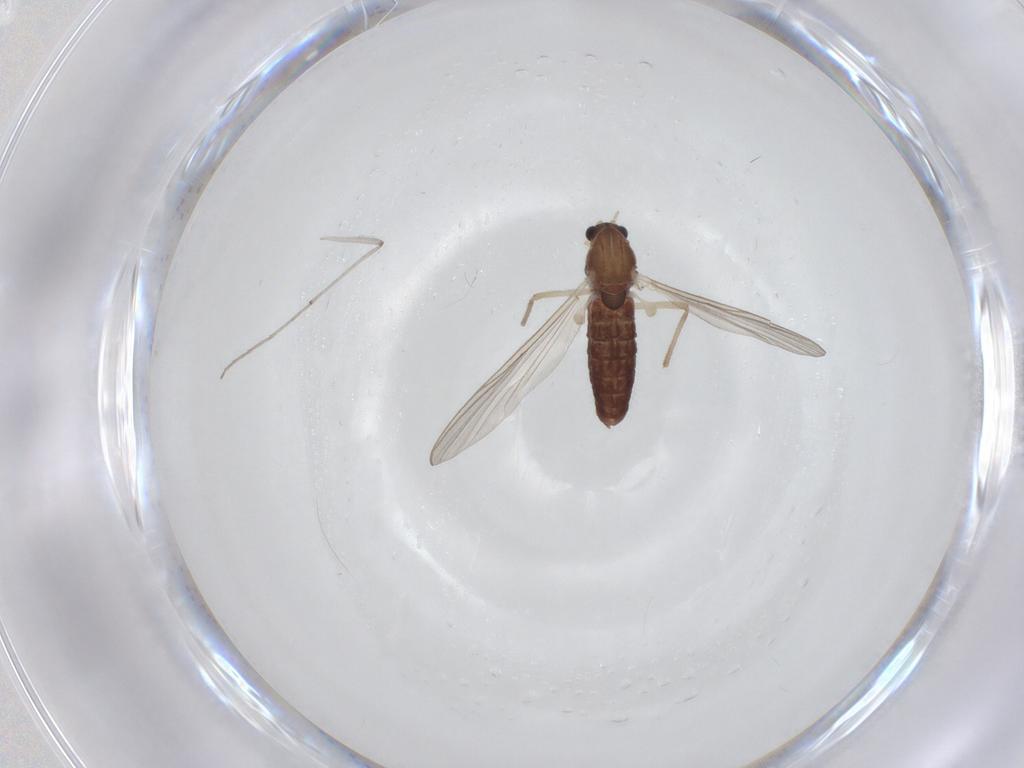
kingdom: Animalia
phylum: Arthropoda
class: Insecta
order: Diptera
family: Chironomidae
